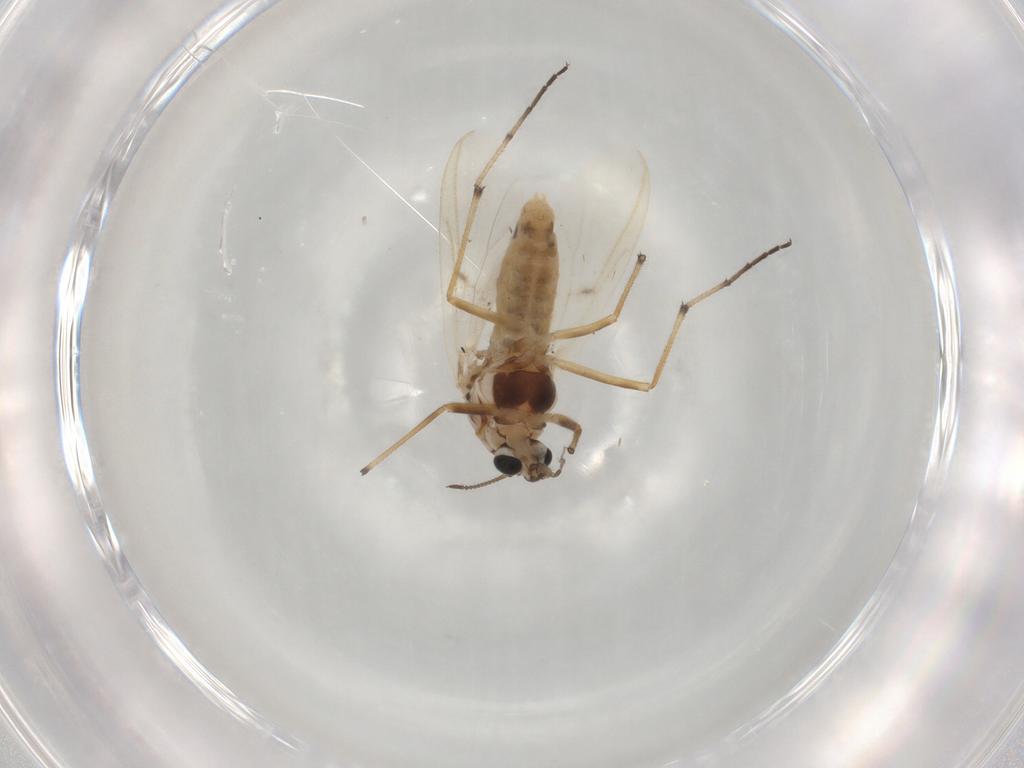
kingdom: Animalia
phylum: Arthropoda
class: Insecta
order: Diptera
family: Chironomidae
